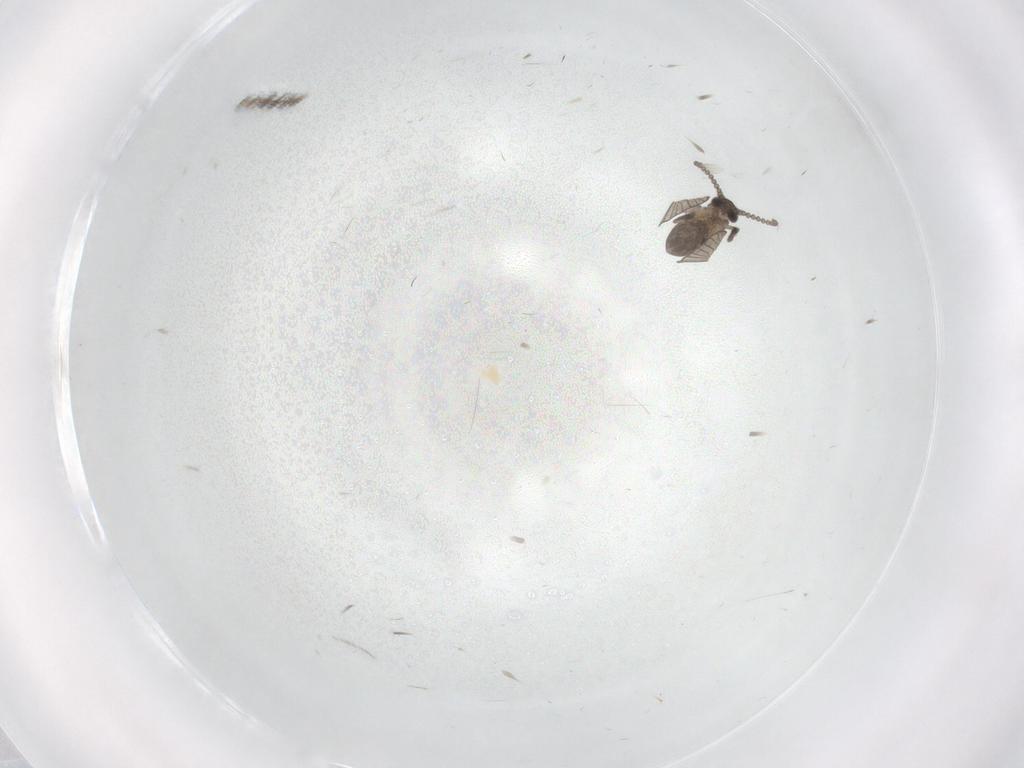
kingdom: Animalia
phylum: Arthropoda
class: Insecta
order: Diptera
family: Psychodidae
